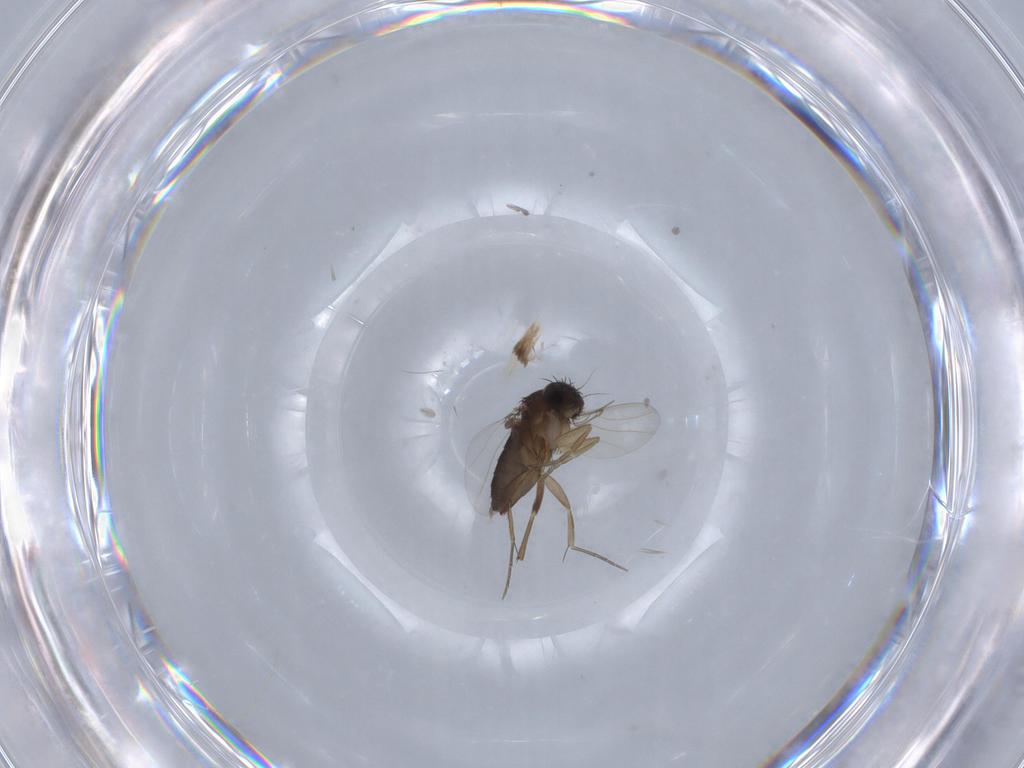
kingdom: Animalia
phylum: Arthropoda
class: Insecta
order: Diptera
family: Phoridae
